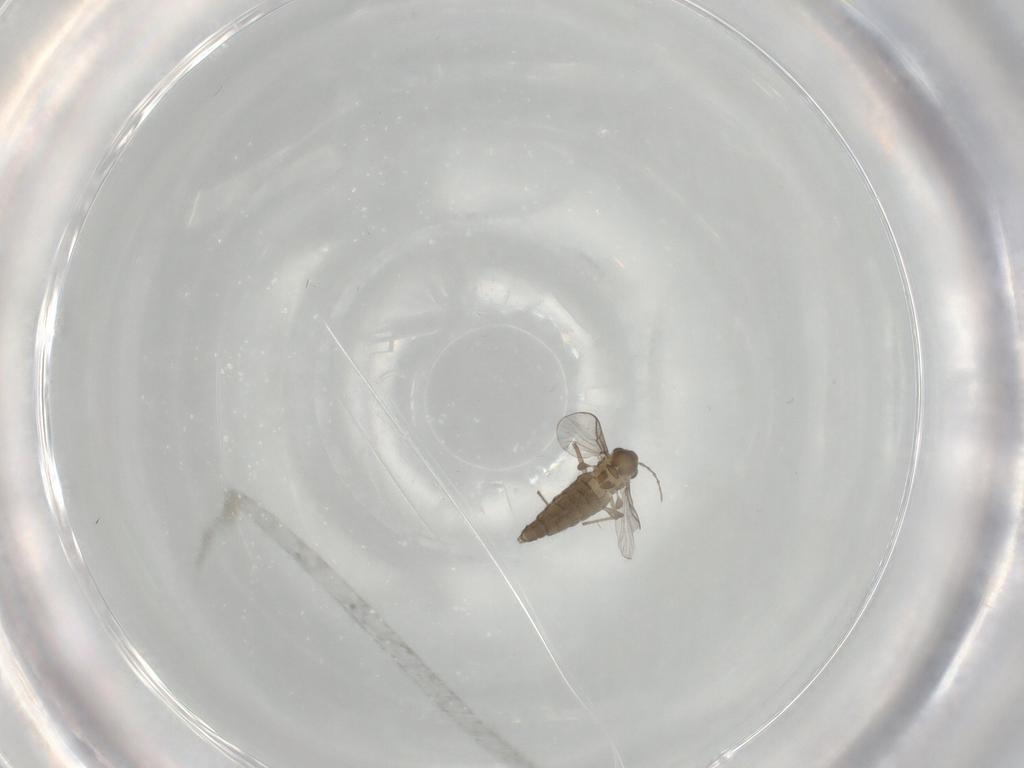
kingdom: Animalia
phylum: Arthropoda
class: Insecta
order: Diptera
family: Chironomidae
